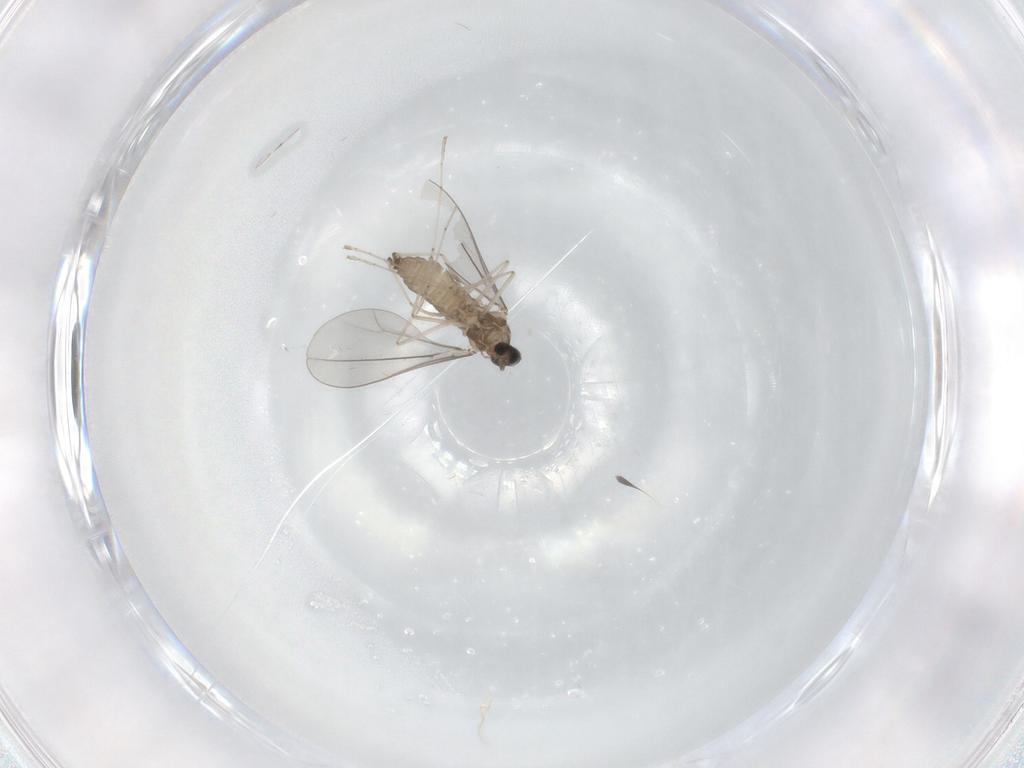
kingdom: Animalia
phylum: Arthropoda
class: Insecta
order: Diptera
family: Cecidomyiidae
